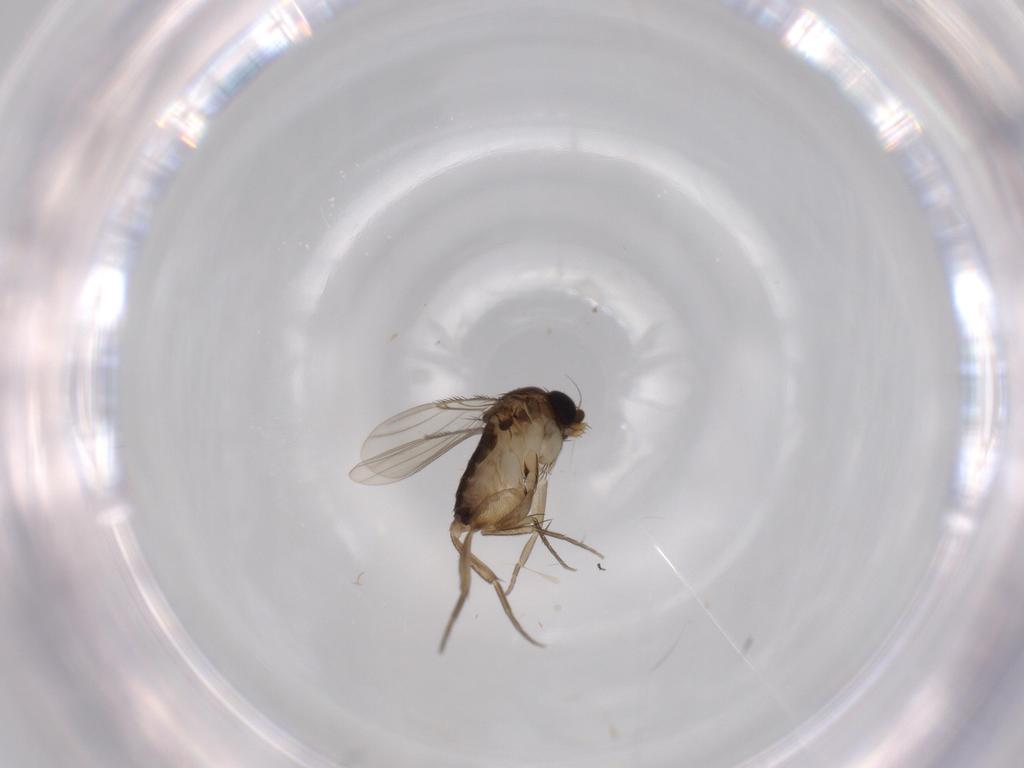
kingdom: Animalia
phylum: Arthropoda
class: Insecta
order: Diptera
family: Phoridae
